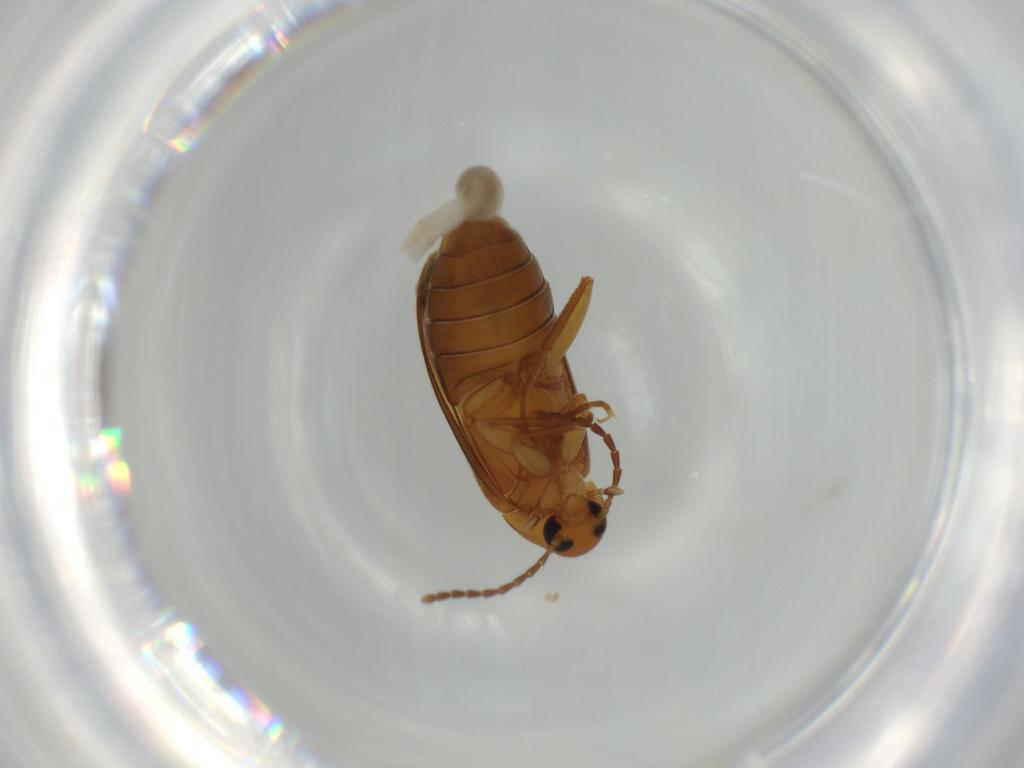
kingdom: Animalia
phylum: Arthropoda
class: Insecta
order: Coleoptera
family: Scraptiidae
